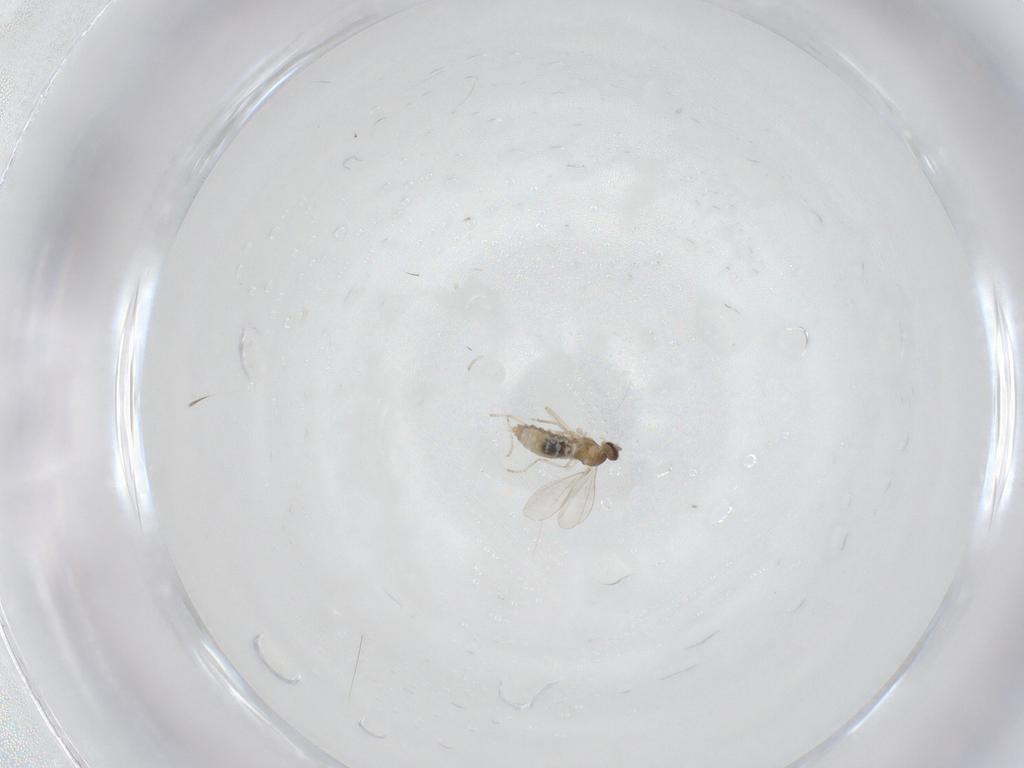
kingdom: Animalia
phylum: Arthropoda
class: Insecta
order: Diptera
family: Cecidomyiidae
